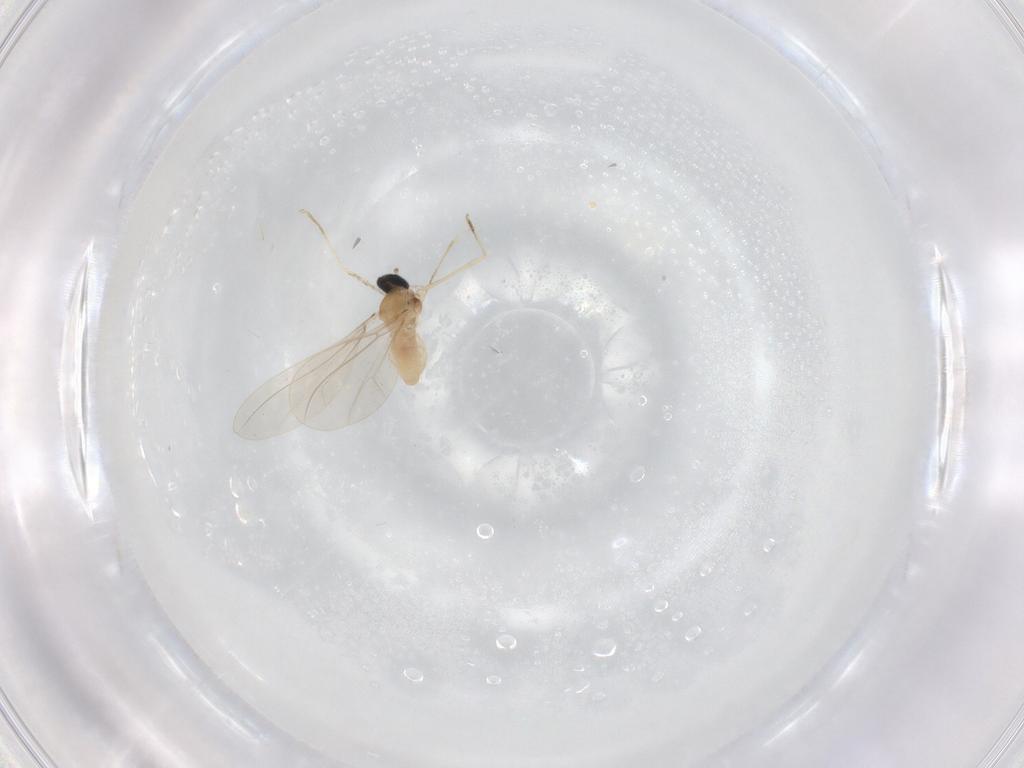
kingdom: Animalia
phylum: Arthropoda
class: Insecta
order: Diptera
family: Cecidomyiidae
